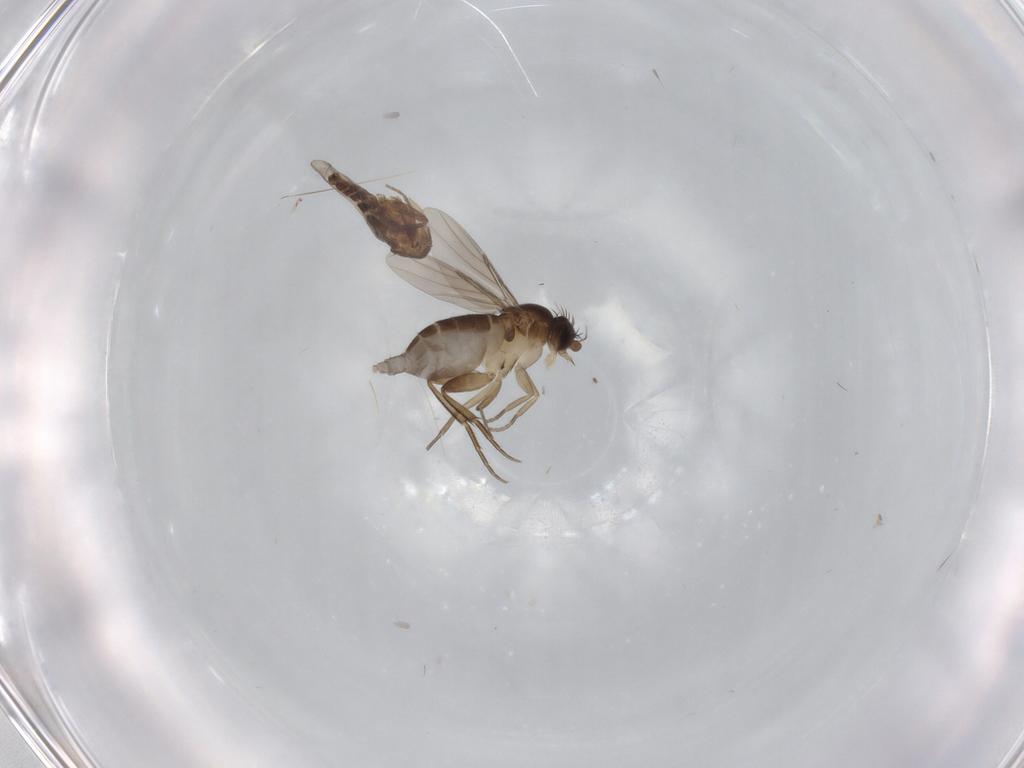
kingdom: Animalia
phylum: Arthropoda
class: Insecta
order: Diptera
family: Phoridae
